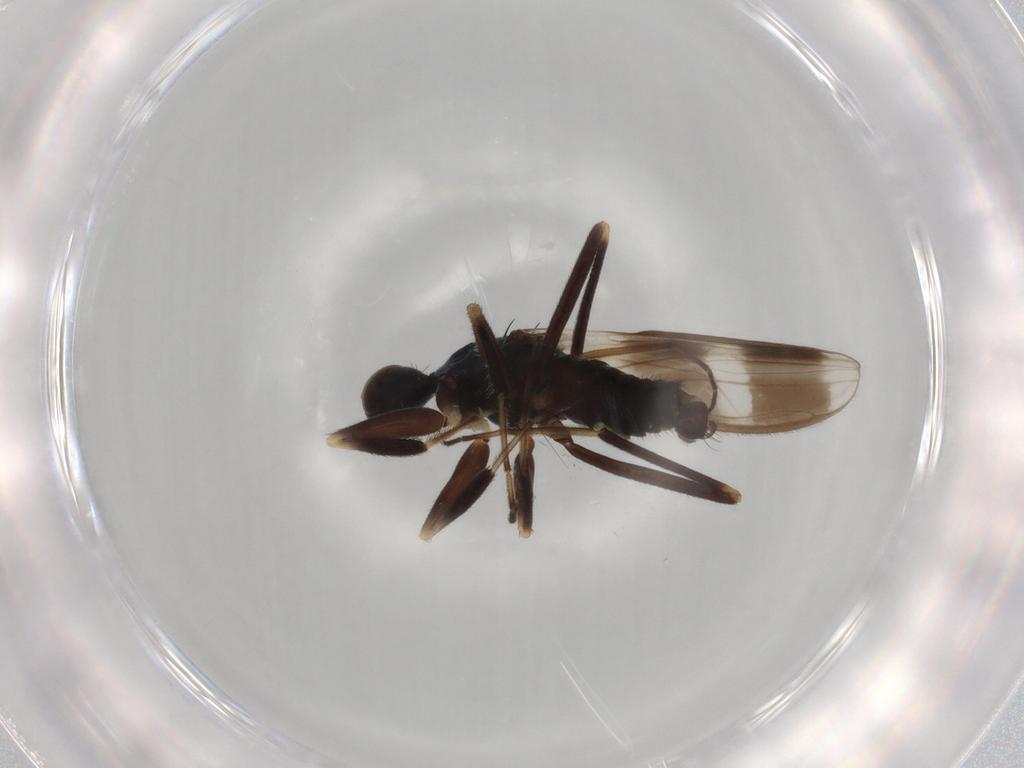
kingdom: Animalia
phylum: Arthropoda
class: Insecta
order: Diptera
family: Hybotidae
